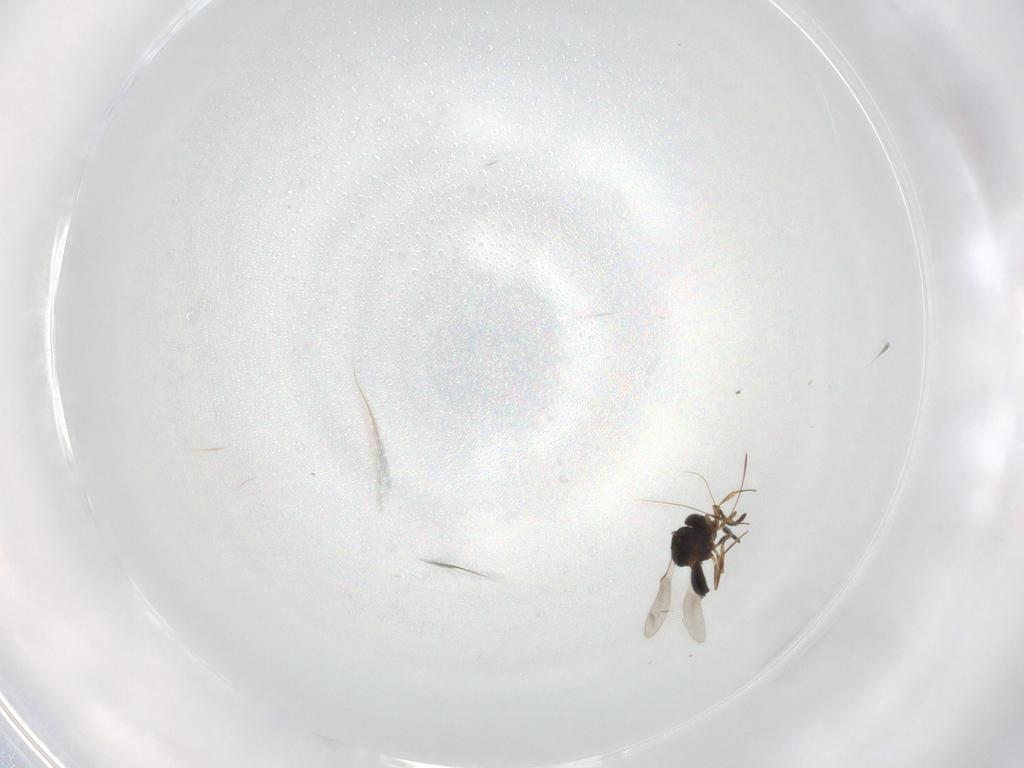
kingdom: Animalia
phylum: Arthropoda
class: Insecta
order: Hymenoptera
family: Scelionidae
